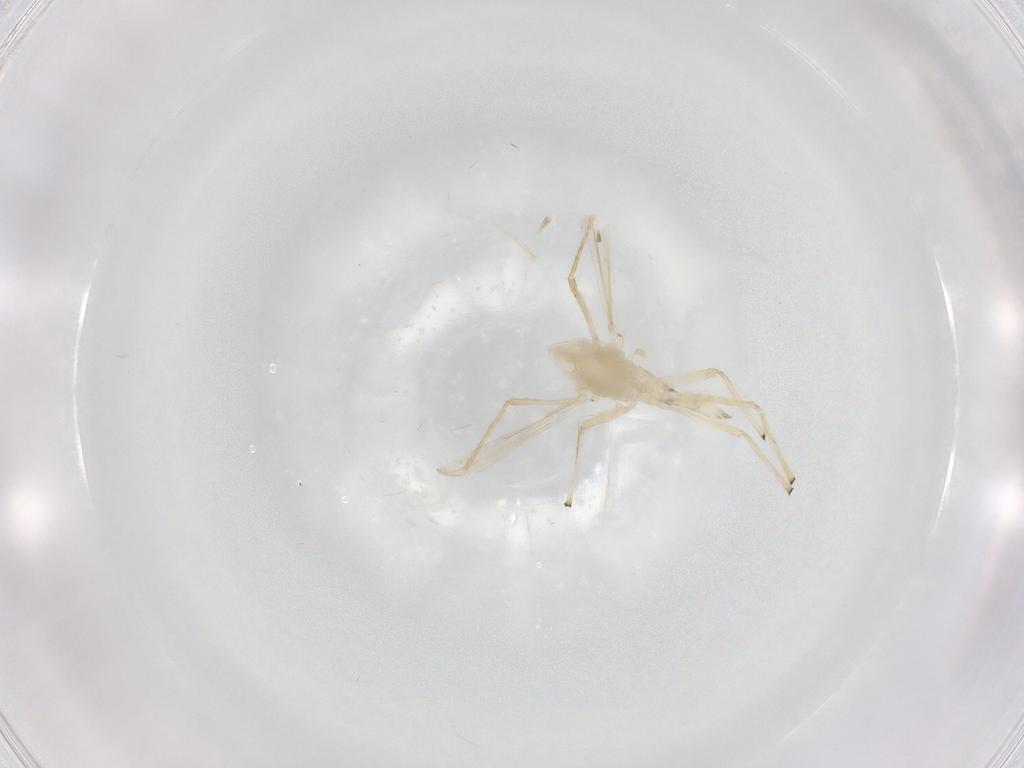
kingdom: Animalia
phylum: Arthropoda
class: Insecta
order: Diptera
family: Chironomidae
